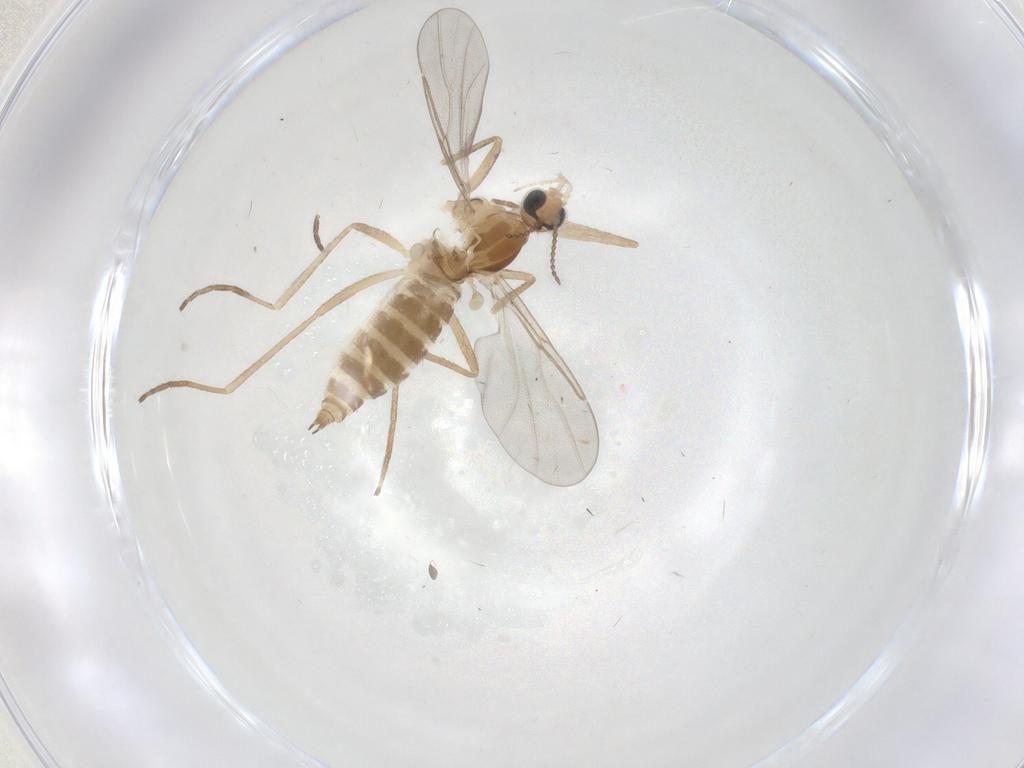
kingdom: Animalia
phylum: Arthropoda
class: Insecta
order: Diptera
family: Cecidomyiidae
